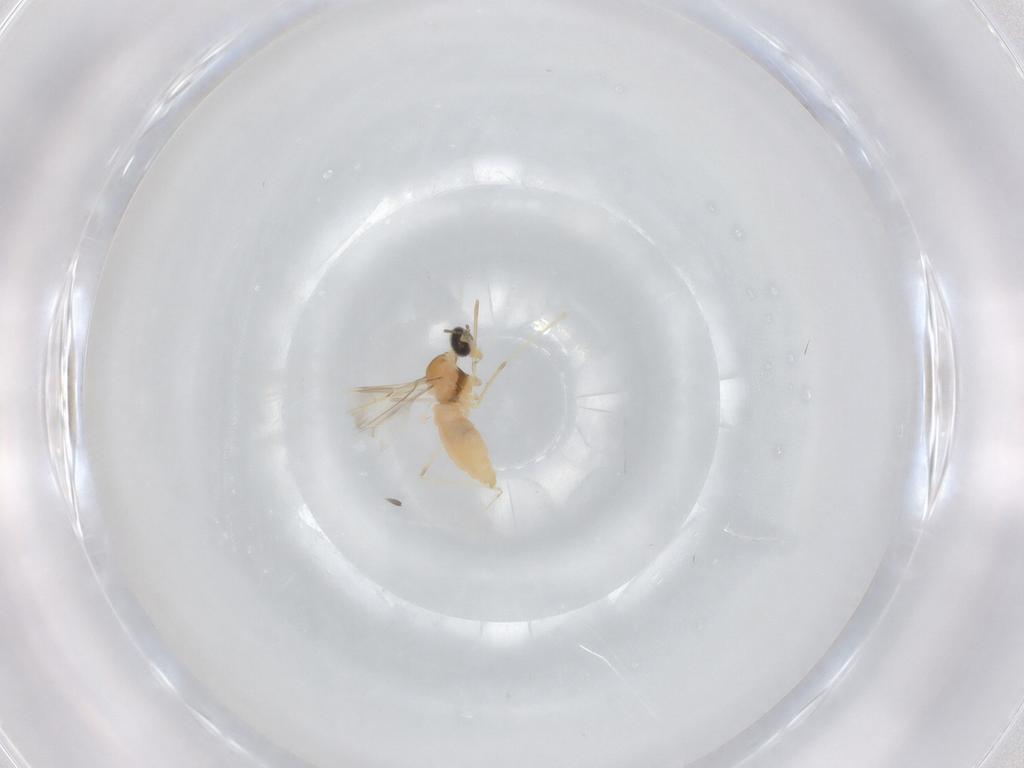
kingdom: Animalia
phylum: Arthropoda
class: Insecta
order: Diptera
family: Cecidomyiidae
